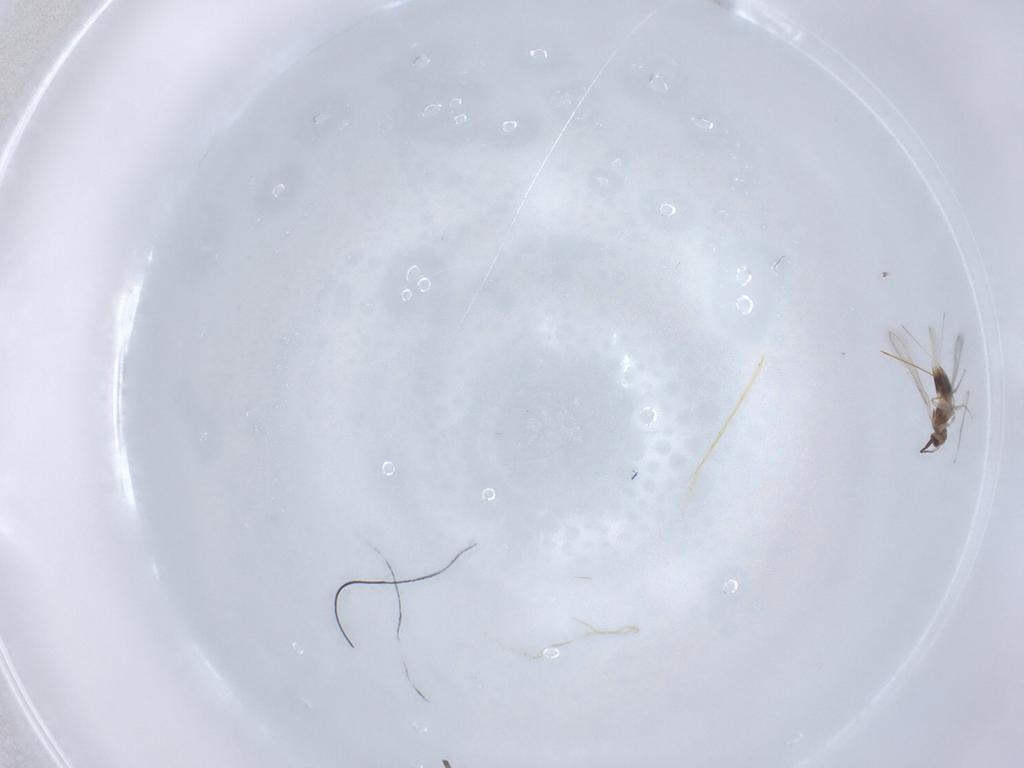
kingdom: Animalia
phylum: Arthropoda
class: Insecta
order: Hymenoptera
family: Mymaridae
